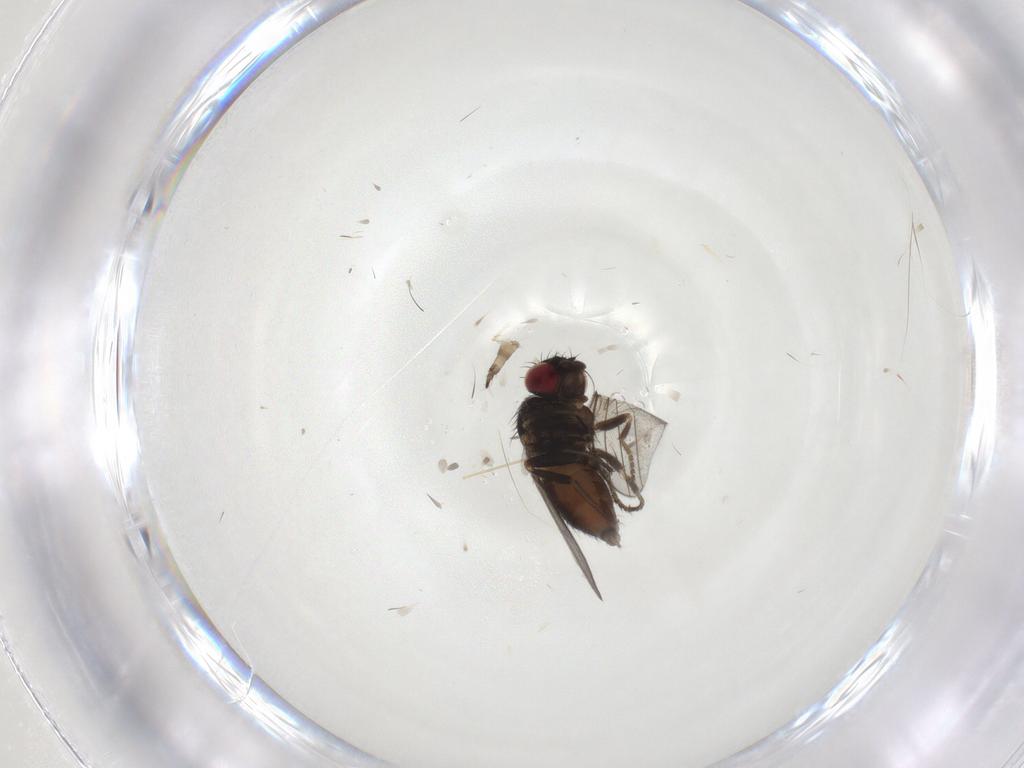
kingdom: Animalia
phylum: Arthropoda
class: Insecta
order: Diptera
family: Milichiidae
